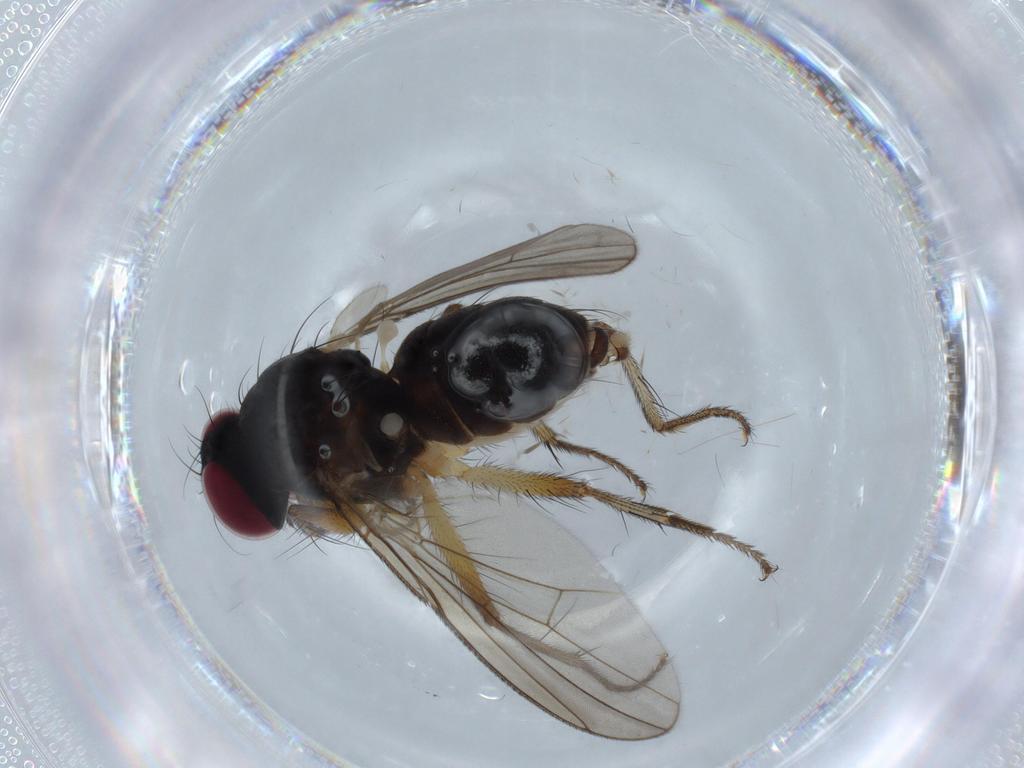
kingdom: Animalia
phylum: Arthropoda
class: Insecta
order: Diptera
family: Anthomyiidae
